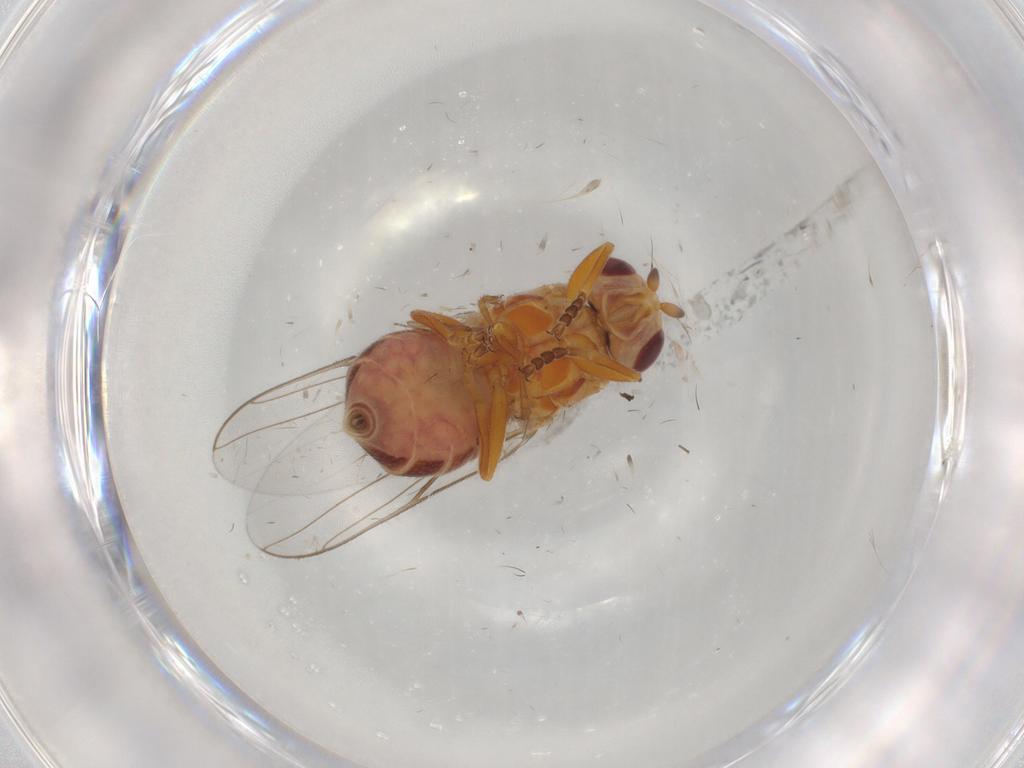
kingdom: Animalia
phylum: Arthropoda
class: Insecta
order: Diptera
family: Chloropidae
